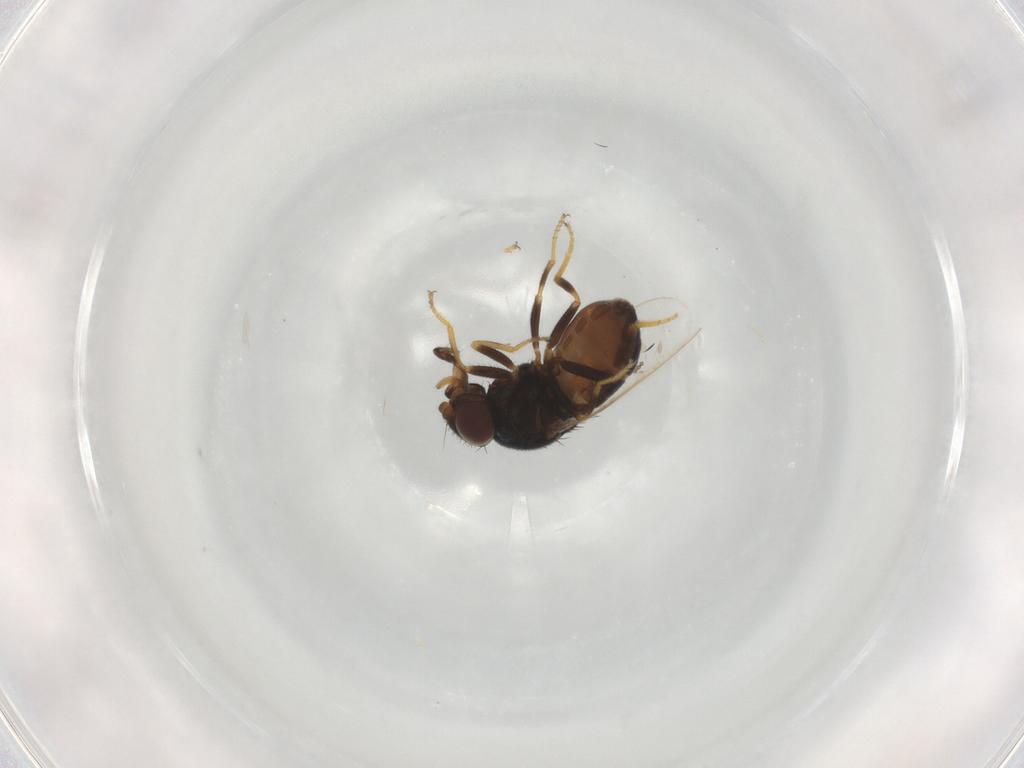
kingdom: Animalia
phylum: Arthropoda
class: Insecta
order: Diptera
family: Chloropidae
